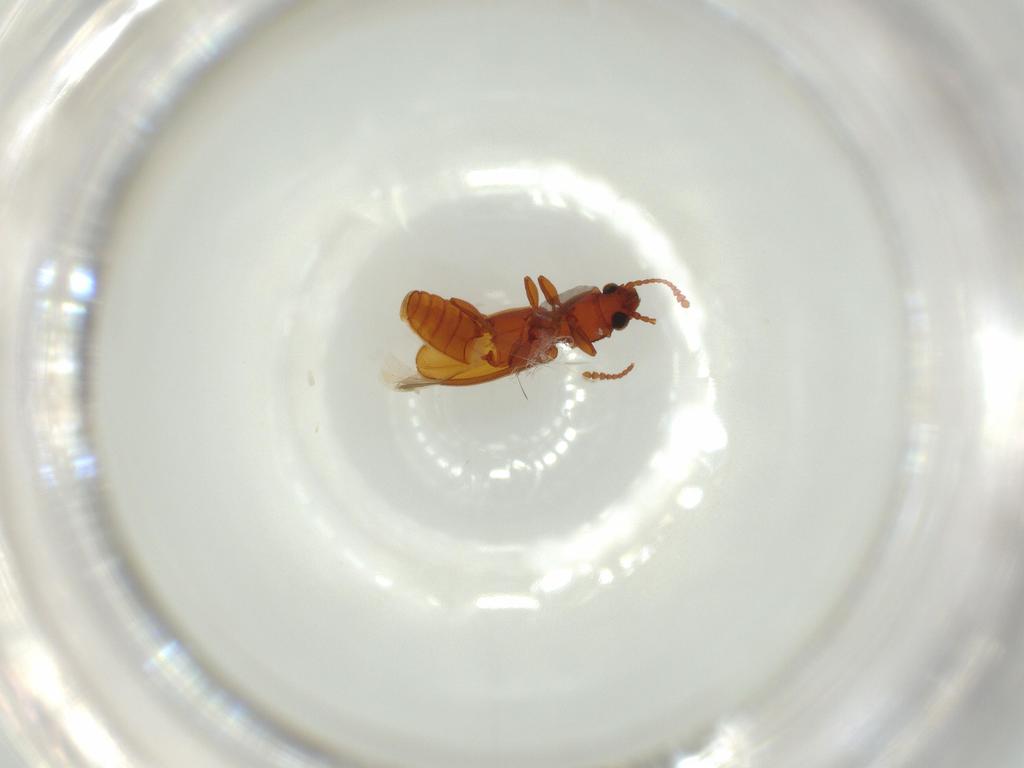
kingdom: Animalia
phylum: Arthropoda
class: Insecta
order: Coleoptera
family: Silvanidae
